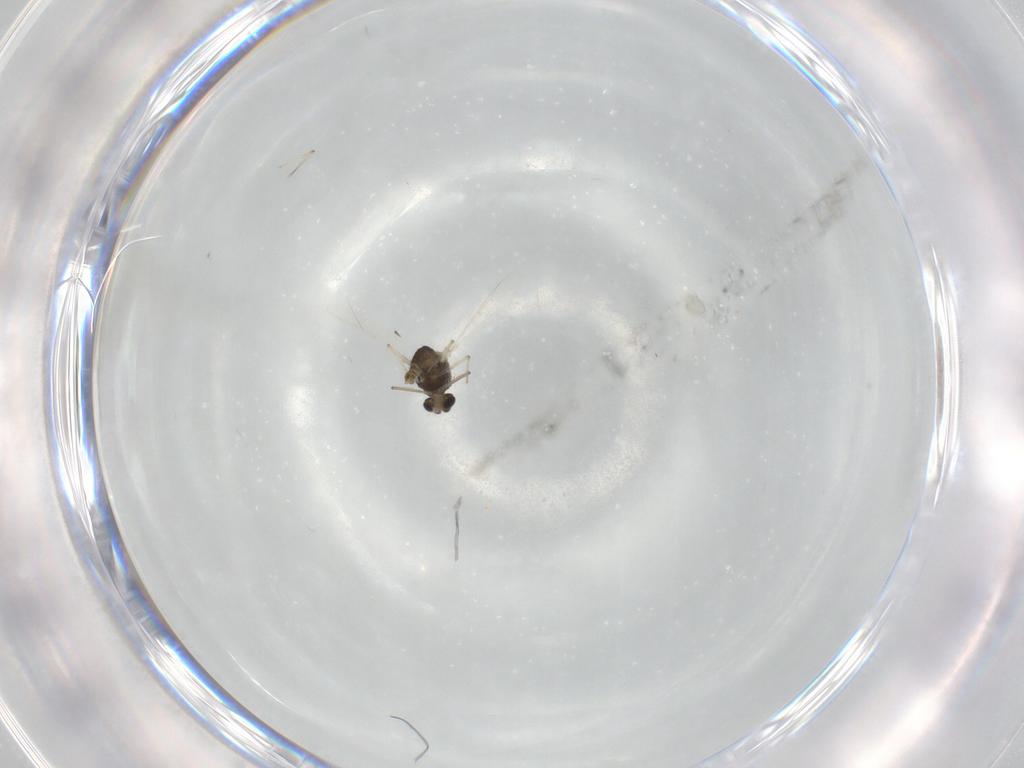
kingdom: Animalia
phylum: Arthropoda
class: Insecta
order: Diptera
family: Chironomidae
